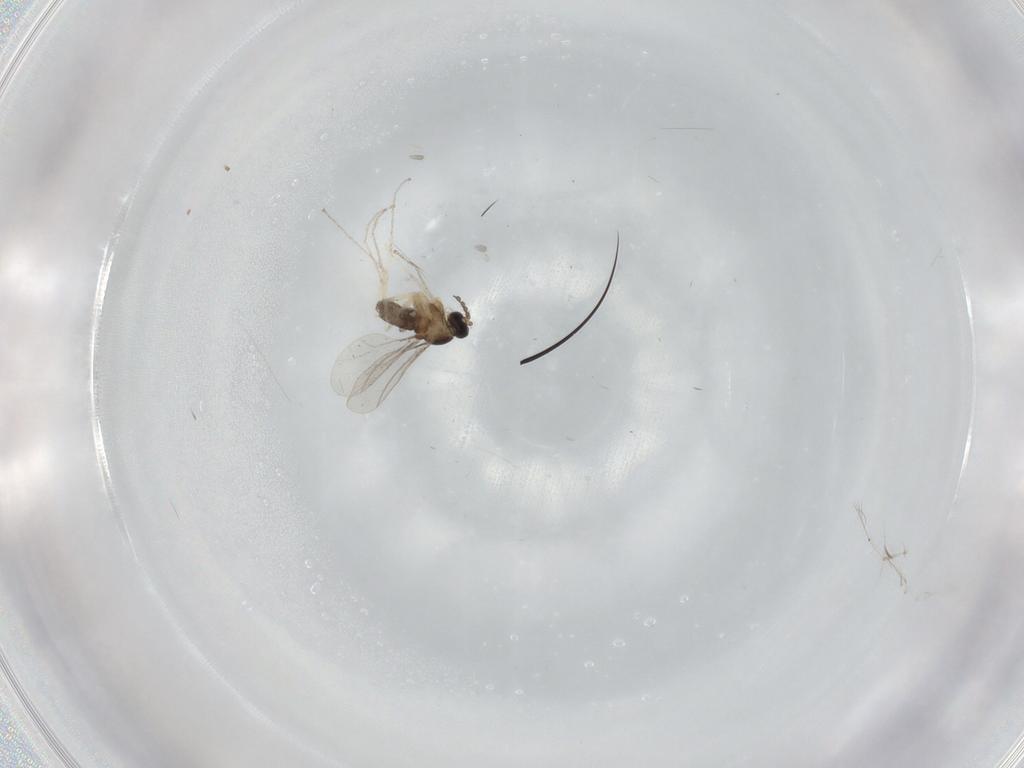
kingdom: Animalia
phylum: Arthropoda
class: Insecta
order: Diptera
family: Cecidomyiidae
